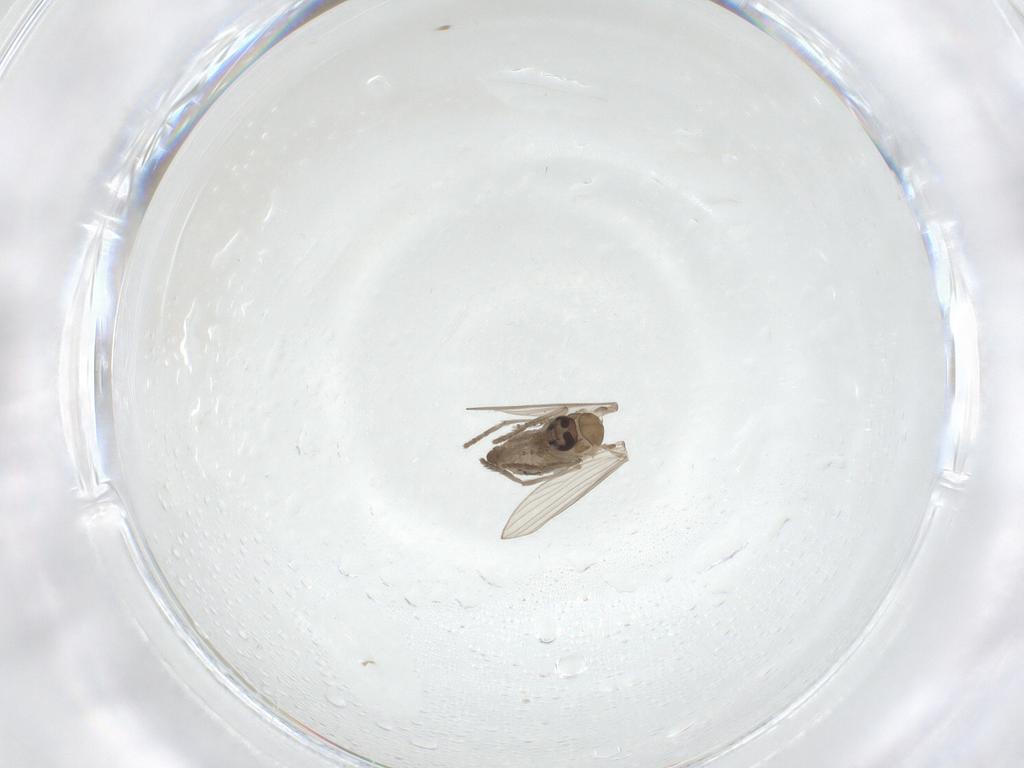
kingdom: Animalia
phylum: Arthropoda
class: Insecta
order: Diptera
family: Psychodidae
